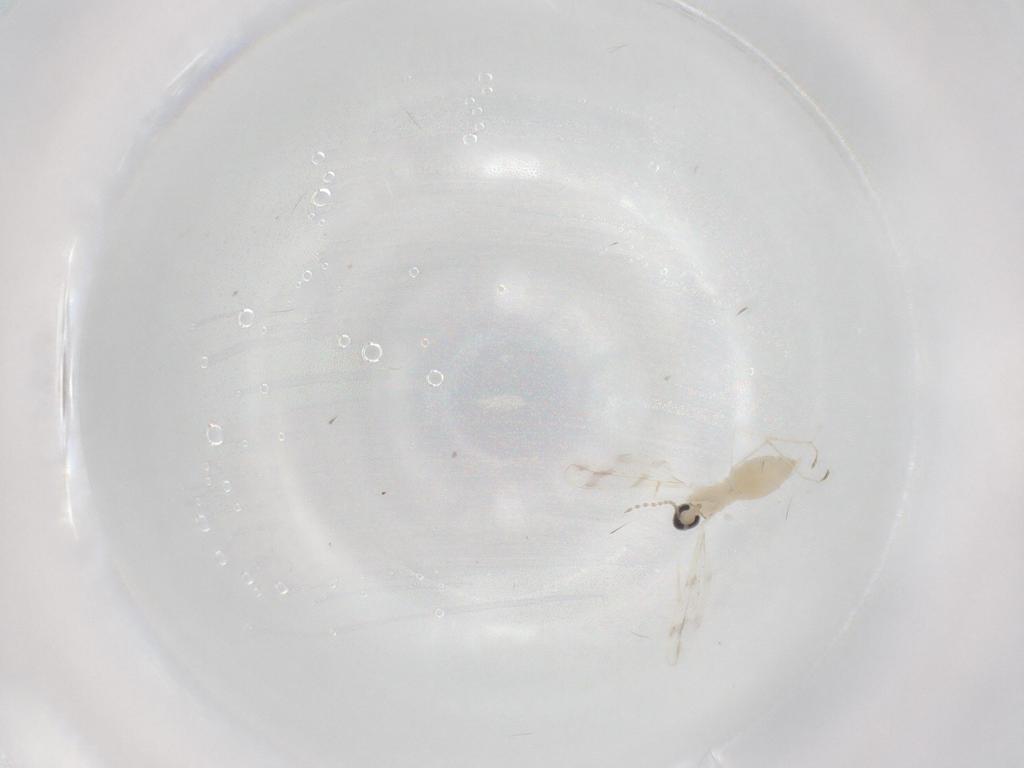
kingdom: Animalia
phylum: Arthropoda
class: Insecta
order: Diptera
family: Cecidomyiidae
